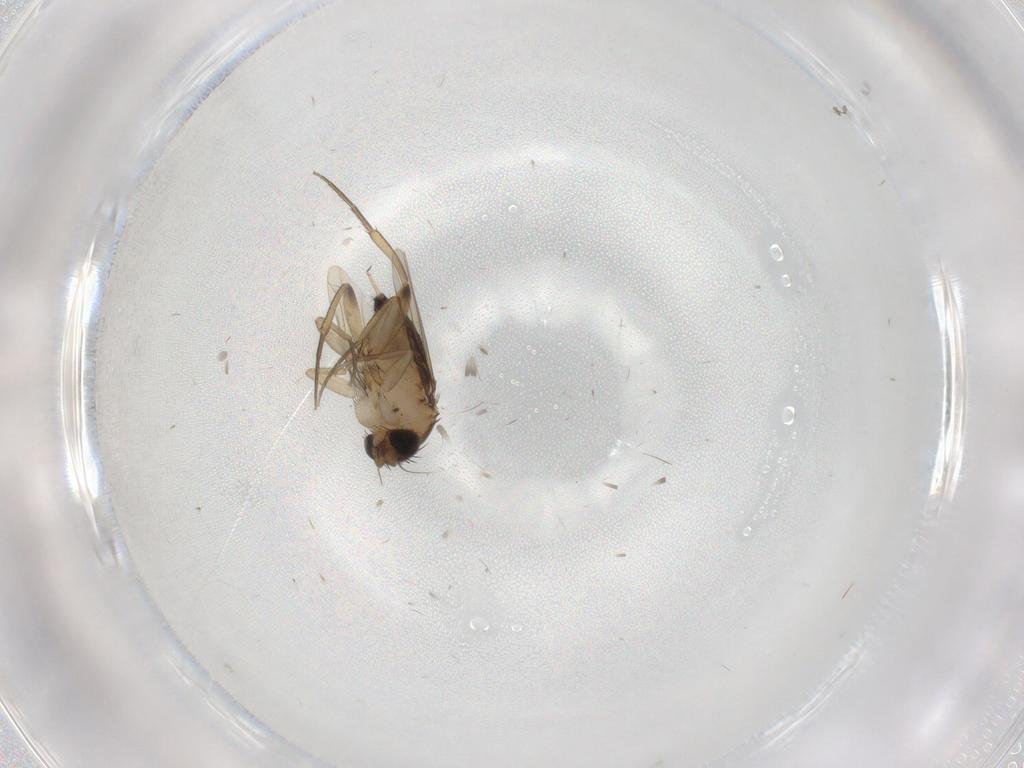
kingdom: Animalia
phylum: Arthropoda
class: Insecta
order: Diptera
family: Phoridae
